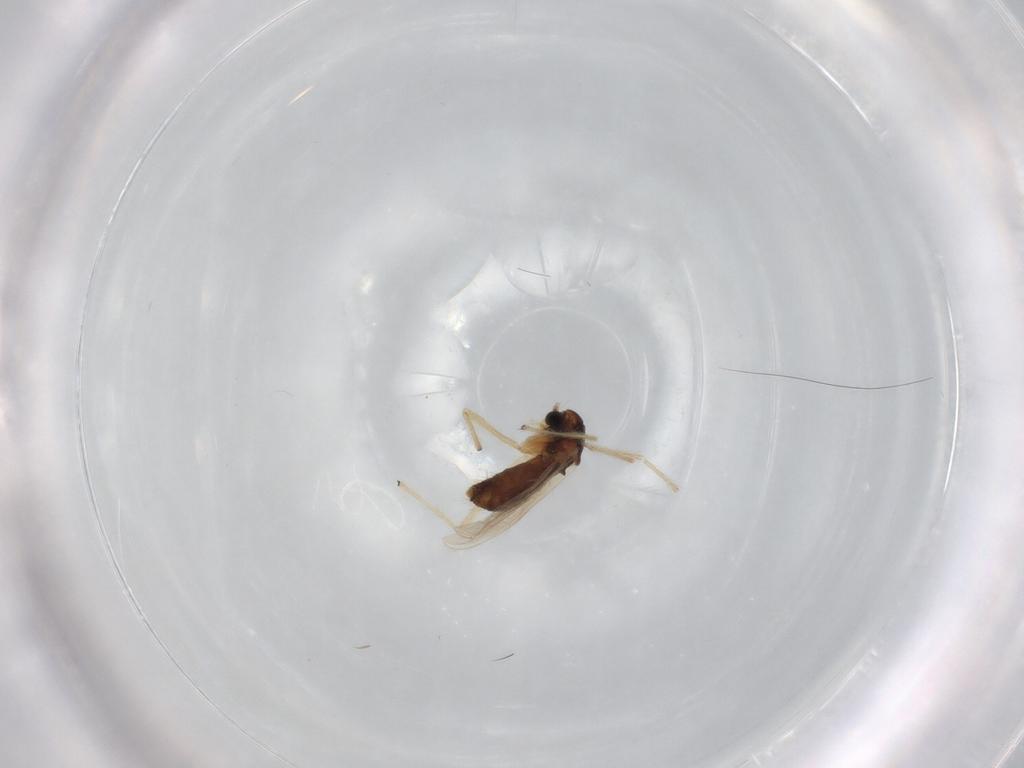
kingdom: Animalia
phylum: Arthropoda
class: Insecta
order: Diptera
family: Chironomidae
